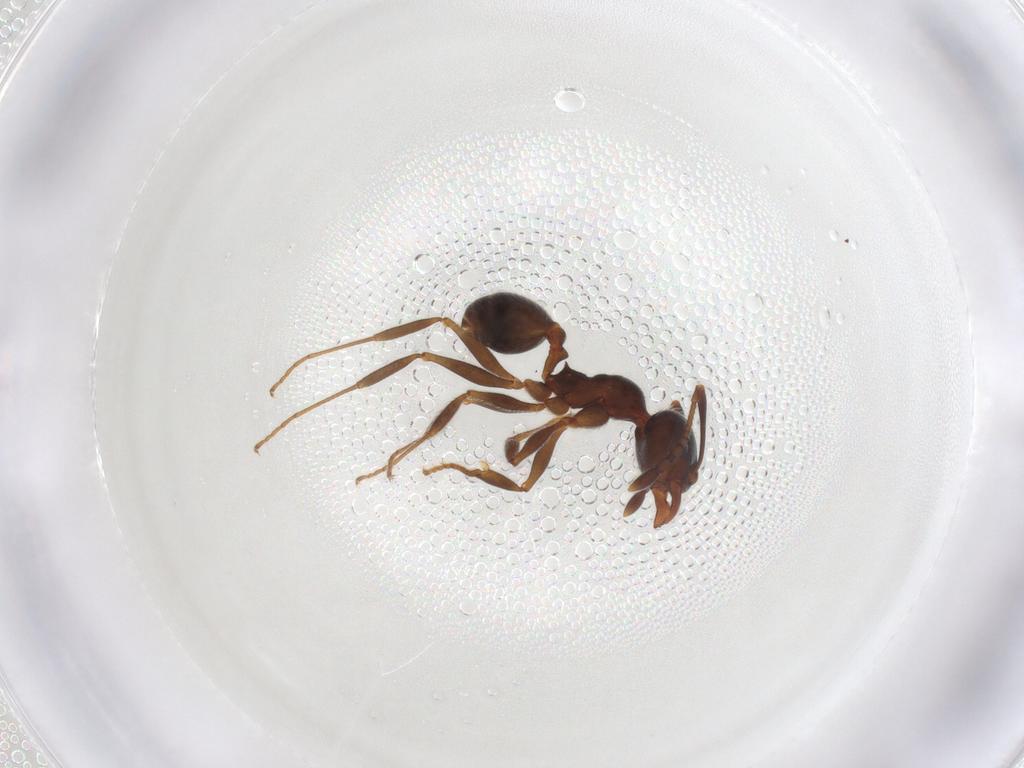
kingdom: Animalia
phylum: Arthropoda
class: Insecta
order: Hymenoptera
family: Formicidae
